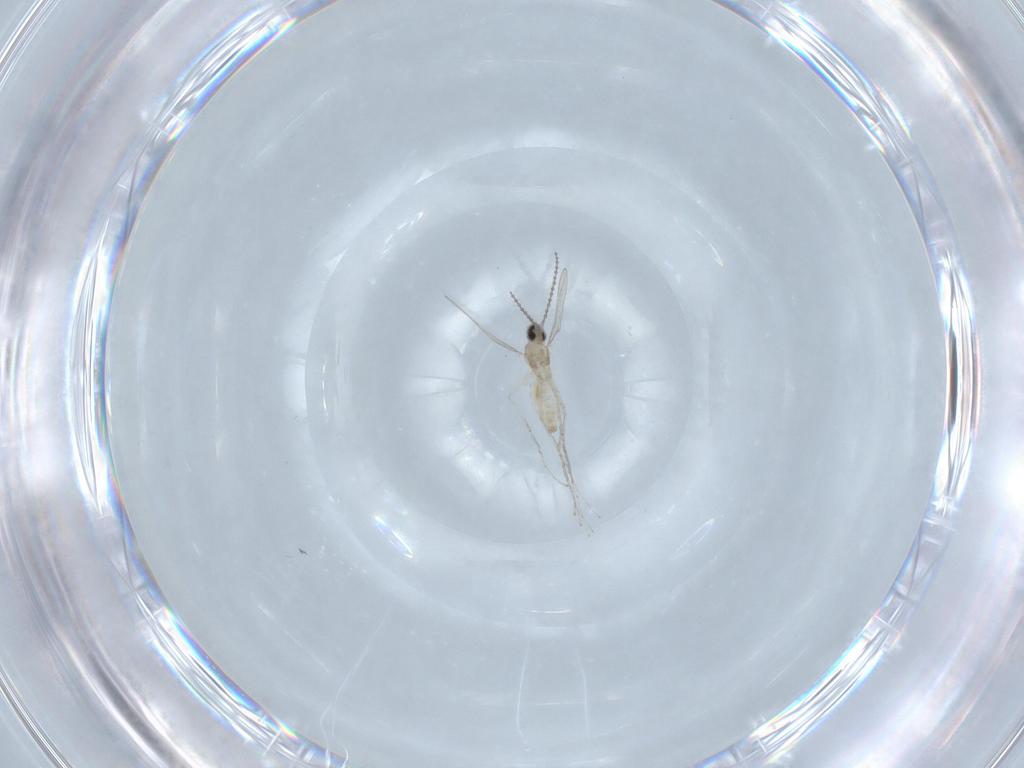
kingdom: Animalia
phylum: Arthropoda
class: Insecta
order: Diptera
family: Cecidomyiidae
